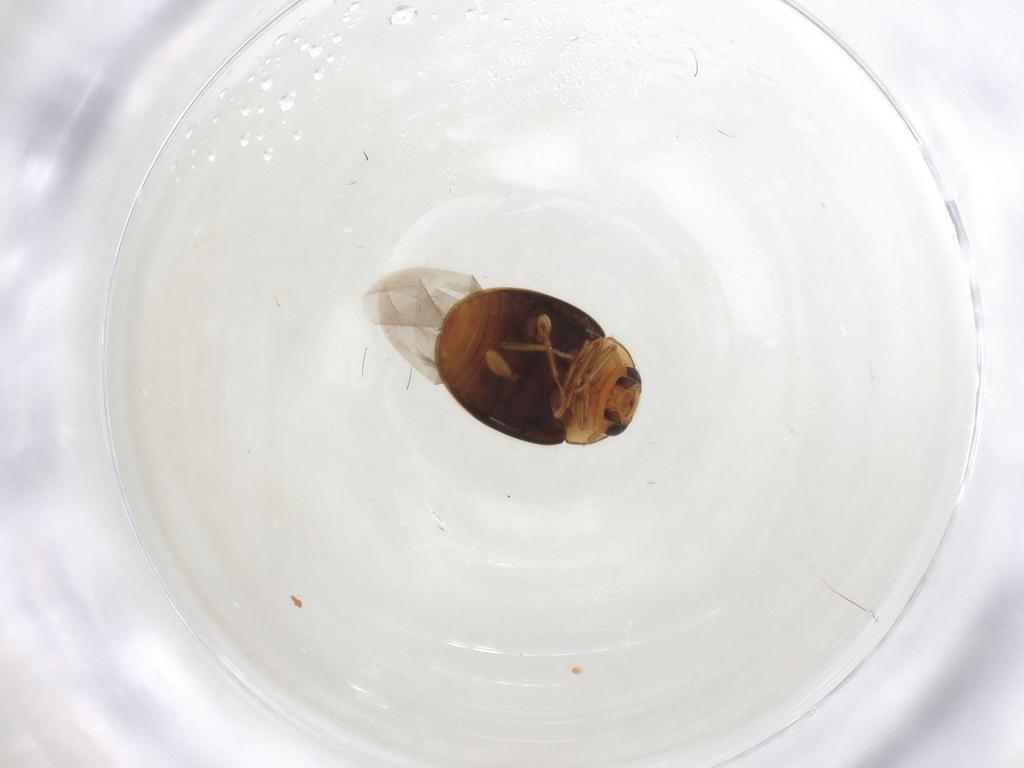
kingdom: Animalia
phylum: Arthropoda
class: Insecta
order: Coleoptera
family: Coccinellidae
